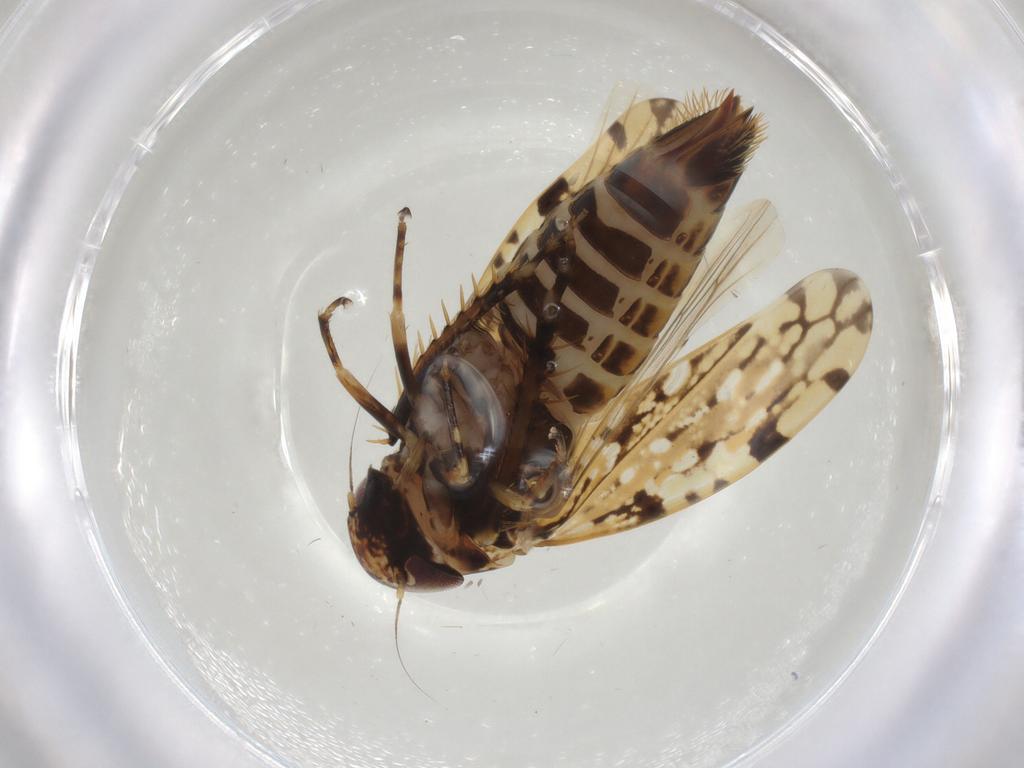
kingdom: Animalia
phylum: Arthropoda
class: Insecta
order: Hemiptera
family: Cicadellidae
